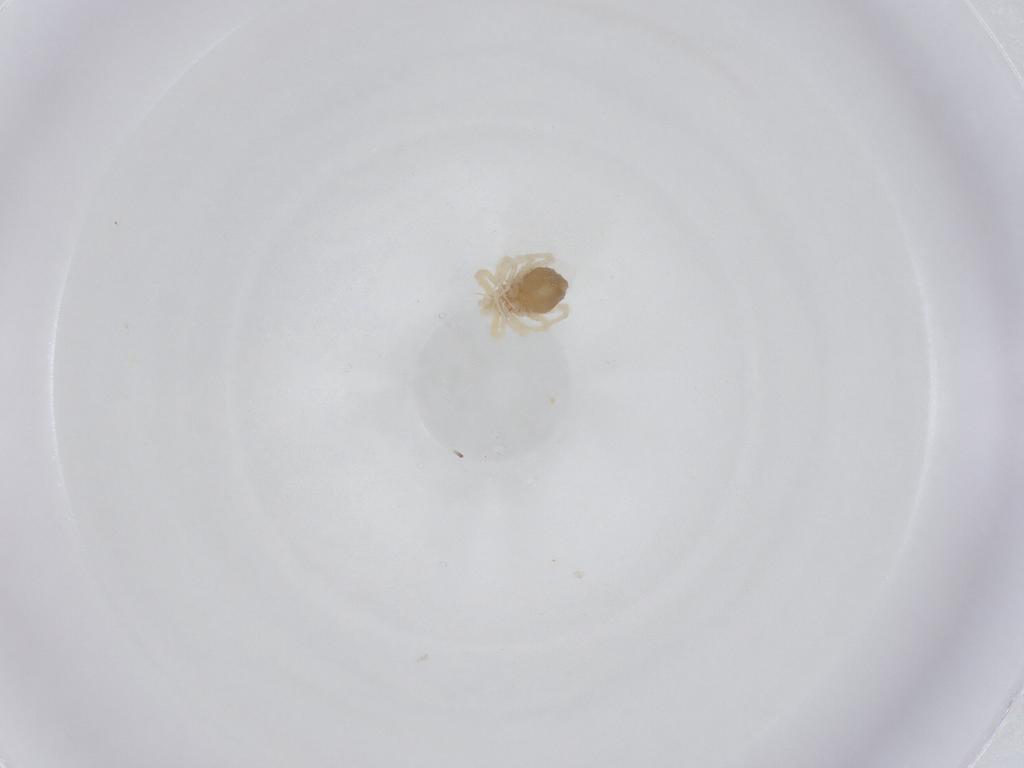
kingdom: Animalia
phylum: Arthropoda
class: Arachnida
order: Trombidiformes
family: Anystidae
